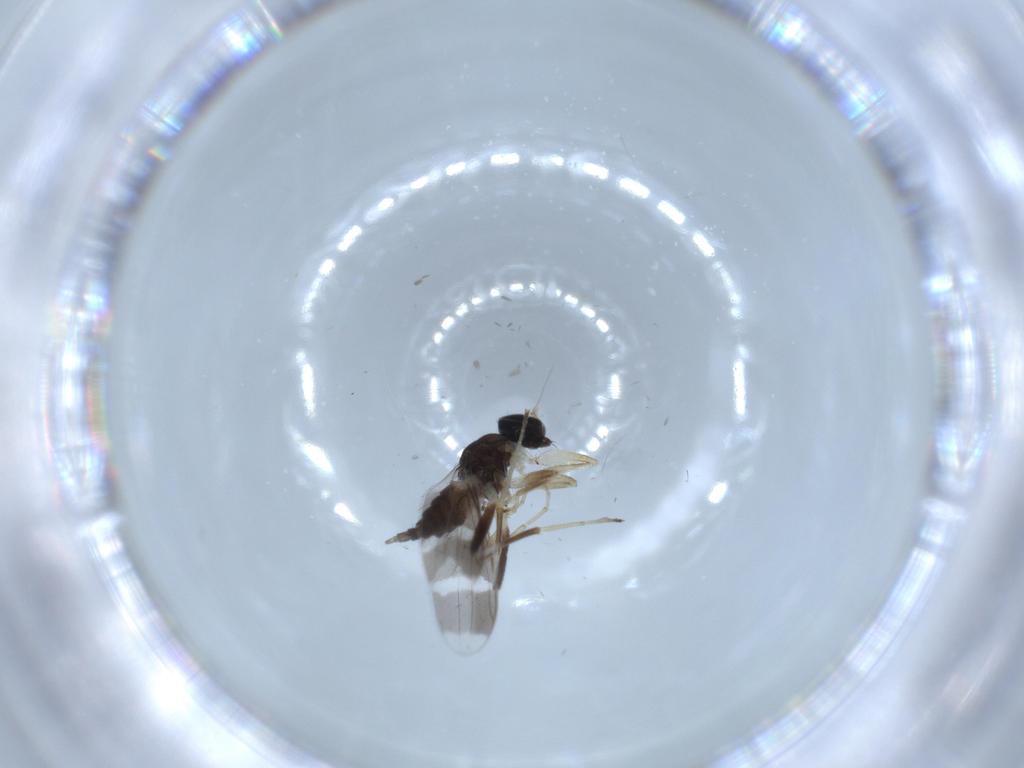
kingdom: Animalia
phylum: Arthropoda
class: Insecta
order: Diptera
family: Hybotidae
